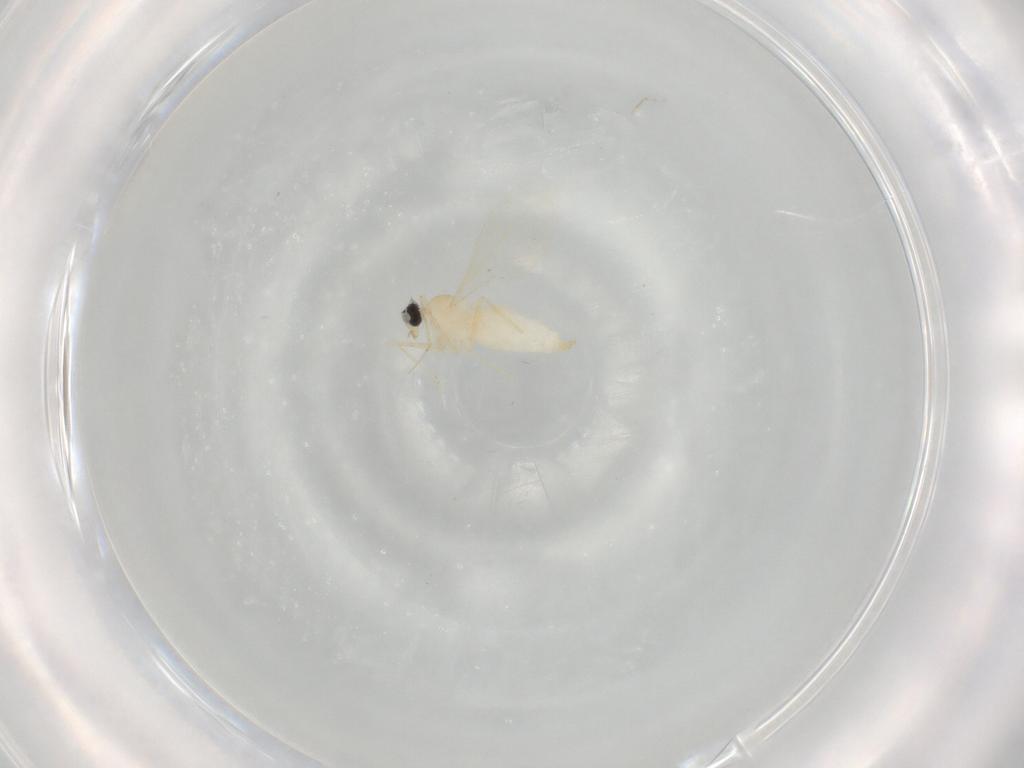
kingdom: Animalia
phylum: Arthropoda
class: Insecta
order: Diptera
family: Cecidomyiidae
